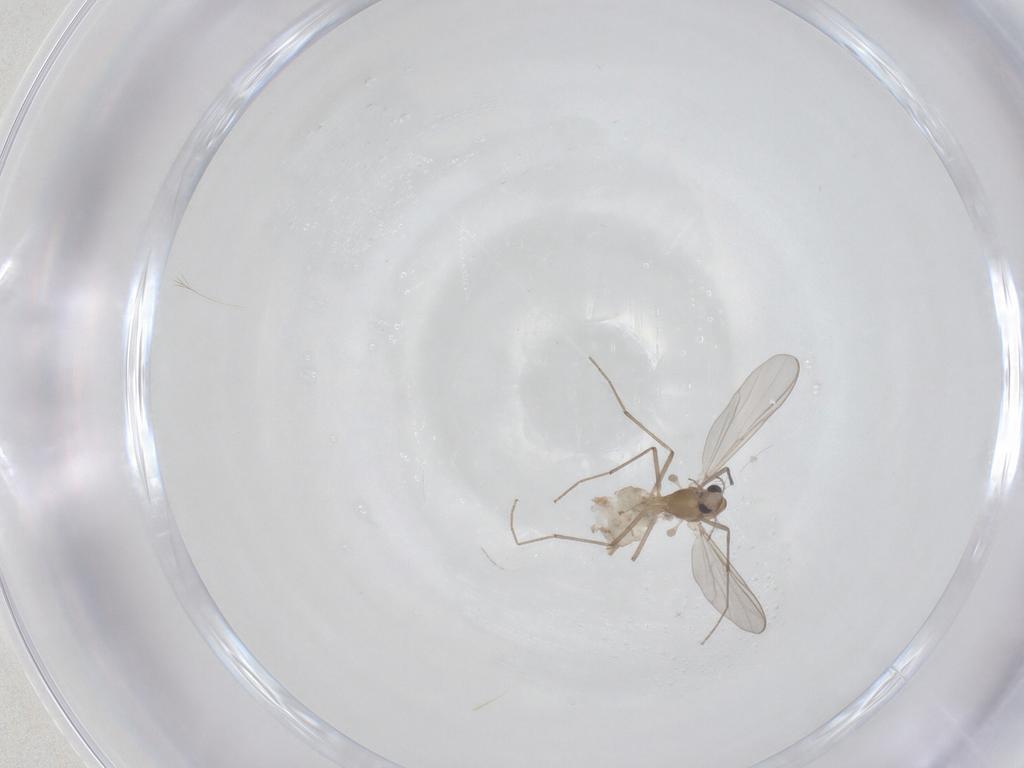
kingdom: Animalia
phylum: Arthropoda
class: Insecta
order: Diptera
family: Chironomidae
